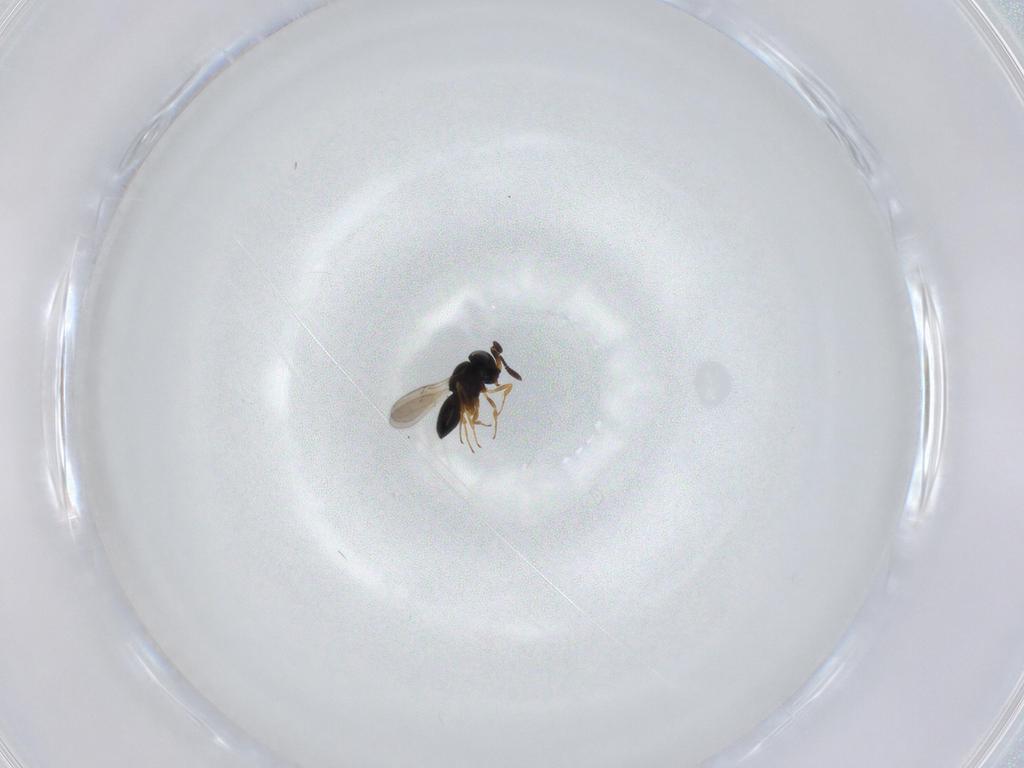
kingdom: Animalia
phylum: Arthropoda
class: Insecta
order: Hymenoptera
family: Scelionidae
